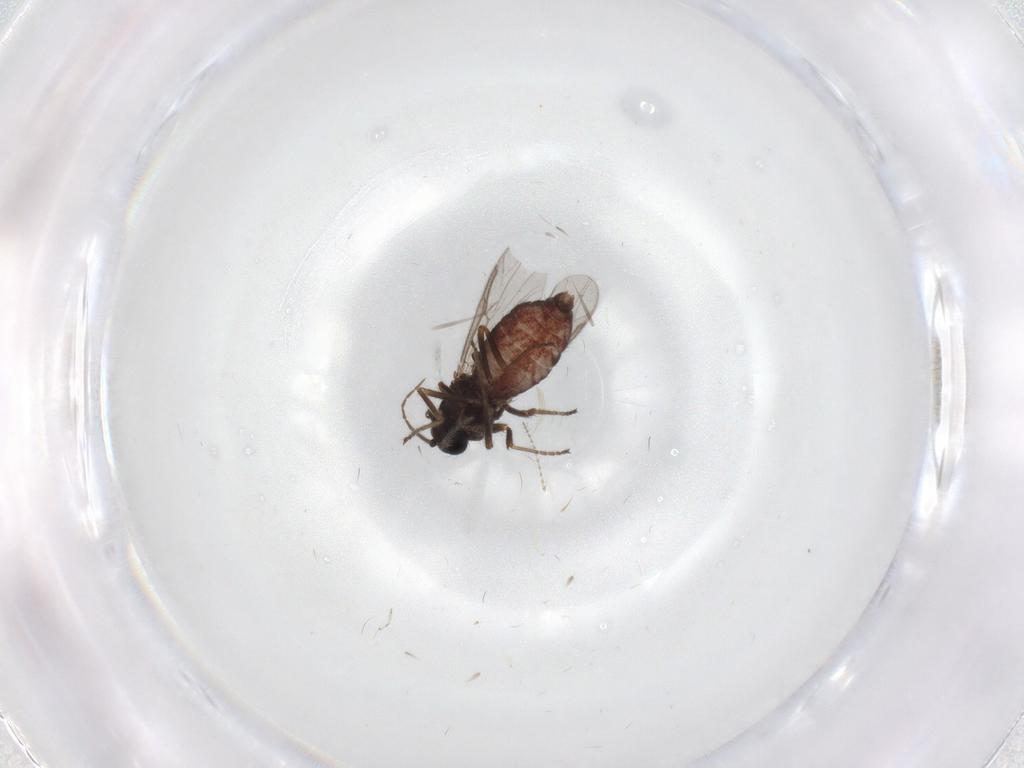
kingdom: Animalia
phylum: Arthropoda
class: Insecta
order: Diptera
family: Ceratopogonidae
